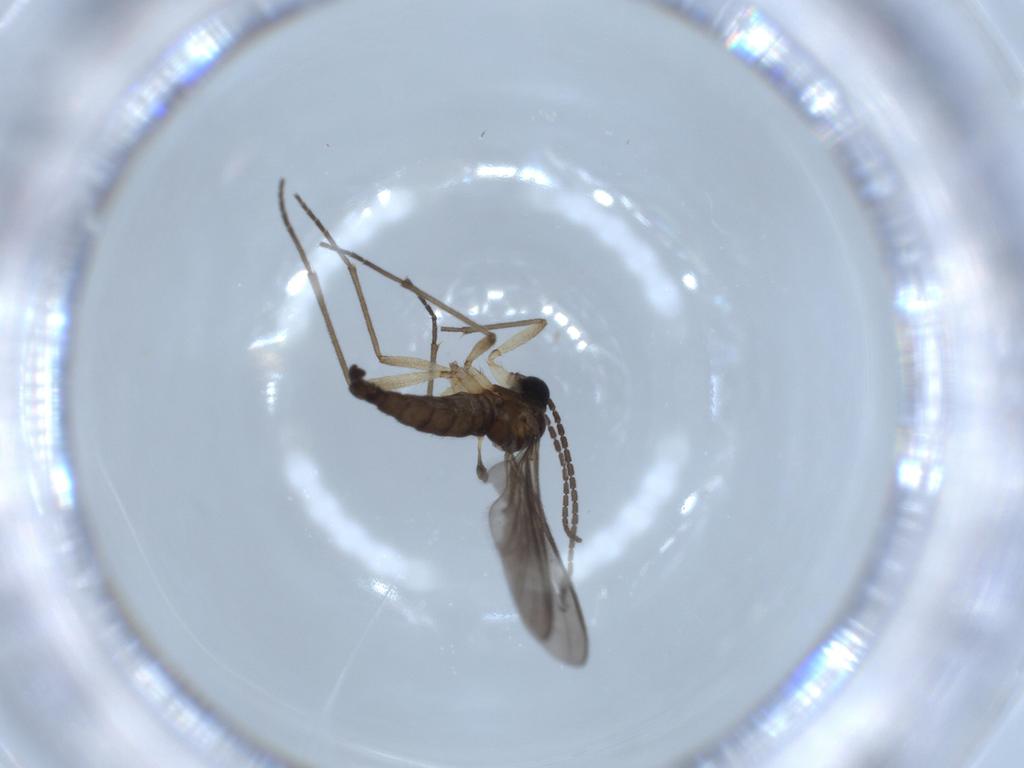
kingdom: Animalia
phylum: Arthropoda
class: Insecta
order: Diptera
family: Sciaridae
